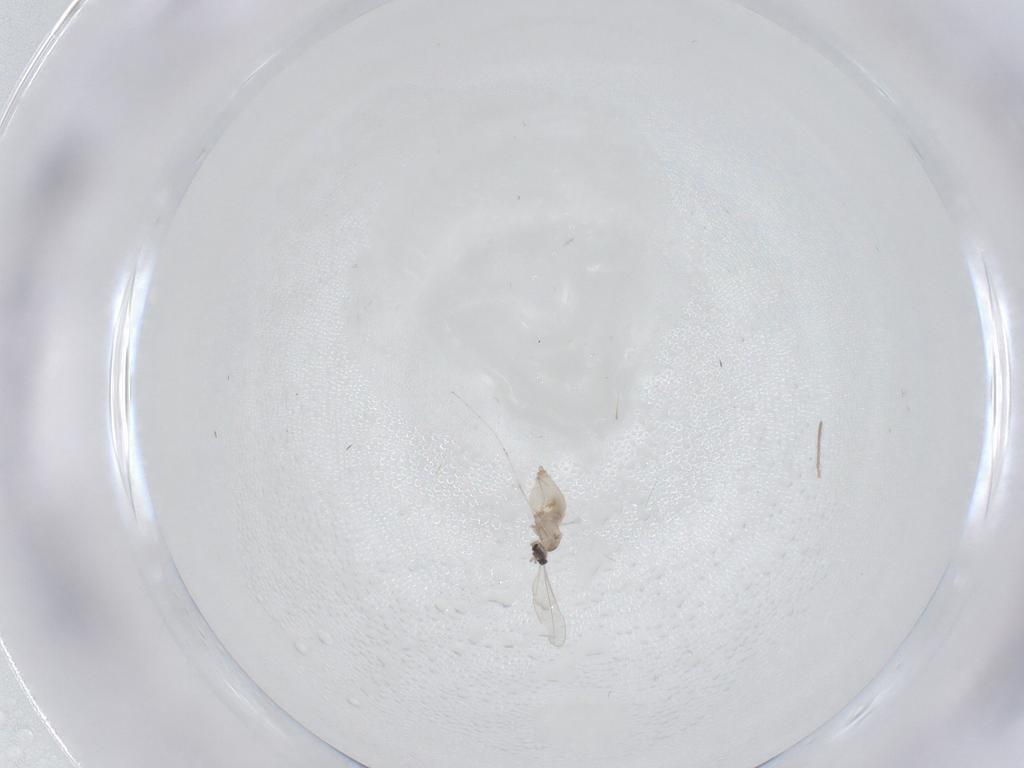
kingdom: Animalia
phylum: Arthropoda
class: Insecta
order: Diptera
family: Cecidomyiidae
